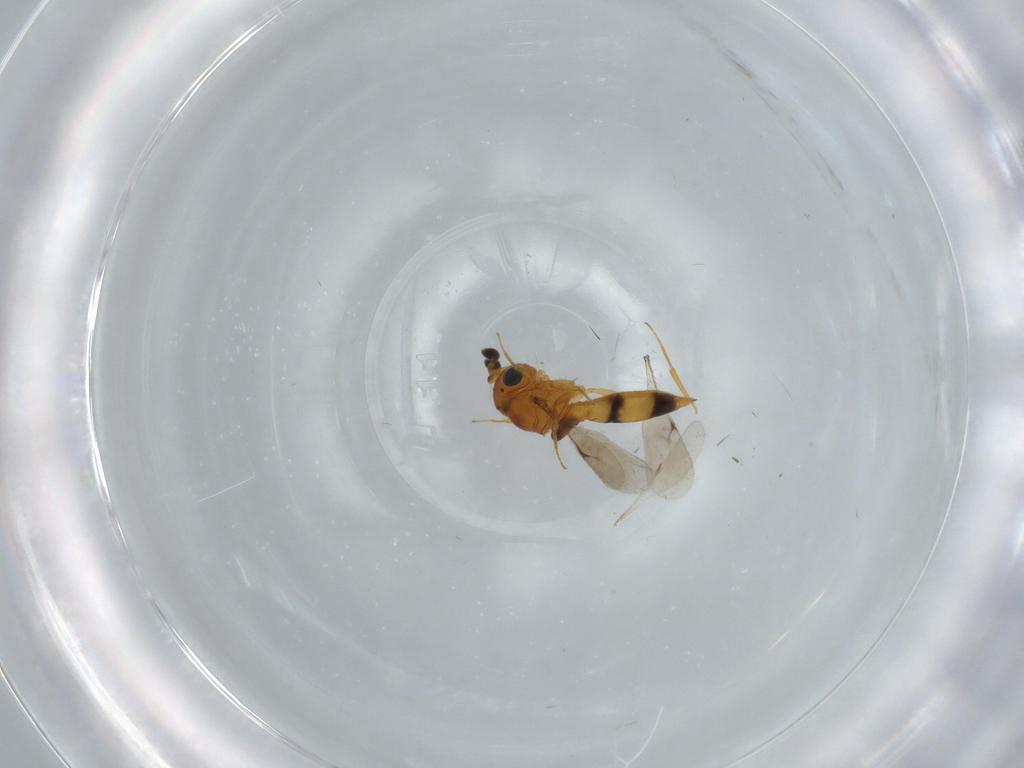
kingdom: Animalia
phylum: Arthropoda
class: Insecta
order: Hymenoptera
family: Scelionidae
